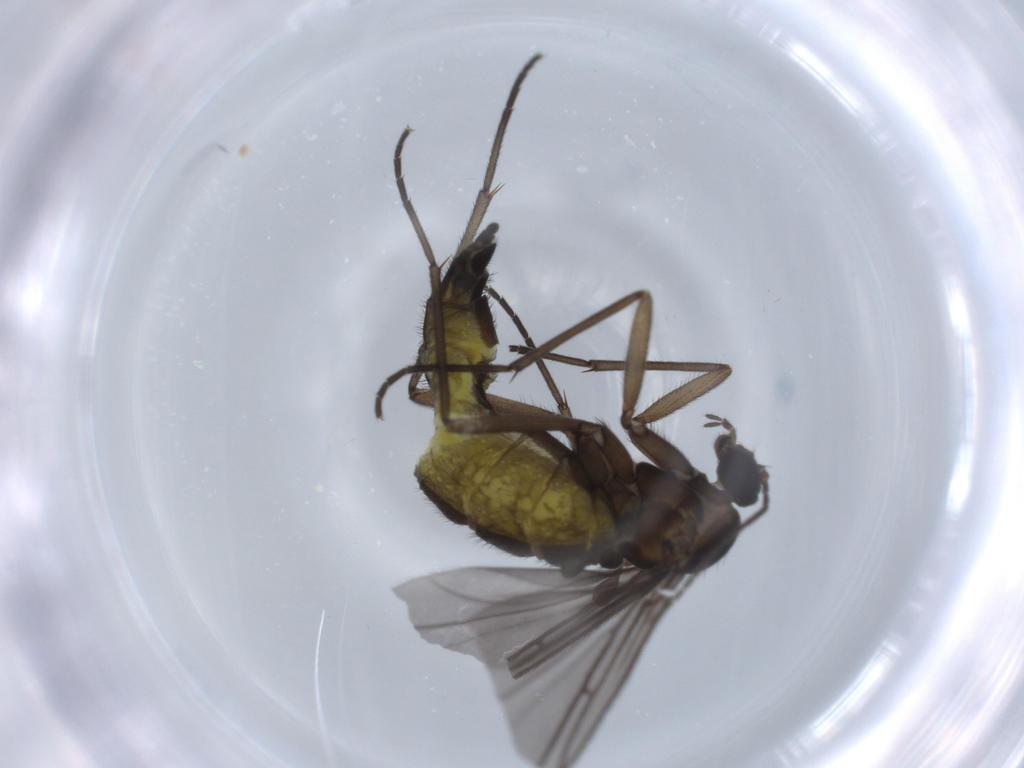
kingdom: Animalia
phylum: Arthropoda
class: Insecta
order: Diptera
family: Sciaridae
